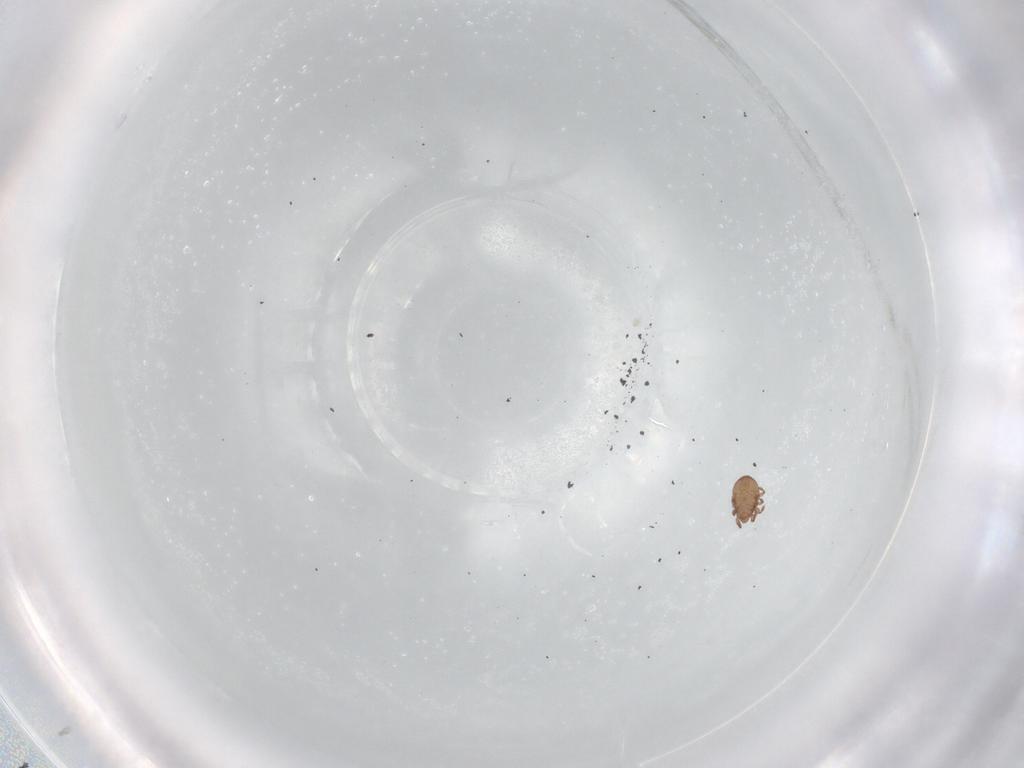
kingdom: Animalia
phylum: Arthropoda
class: Arachnida
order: Sarcoptiformes
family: Eremaeidae
